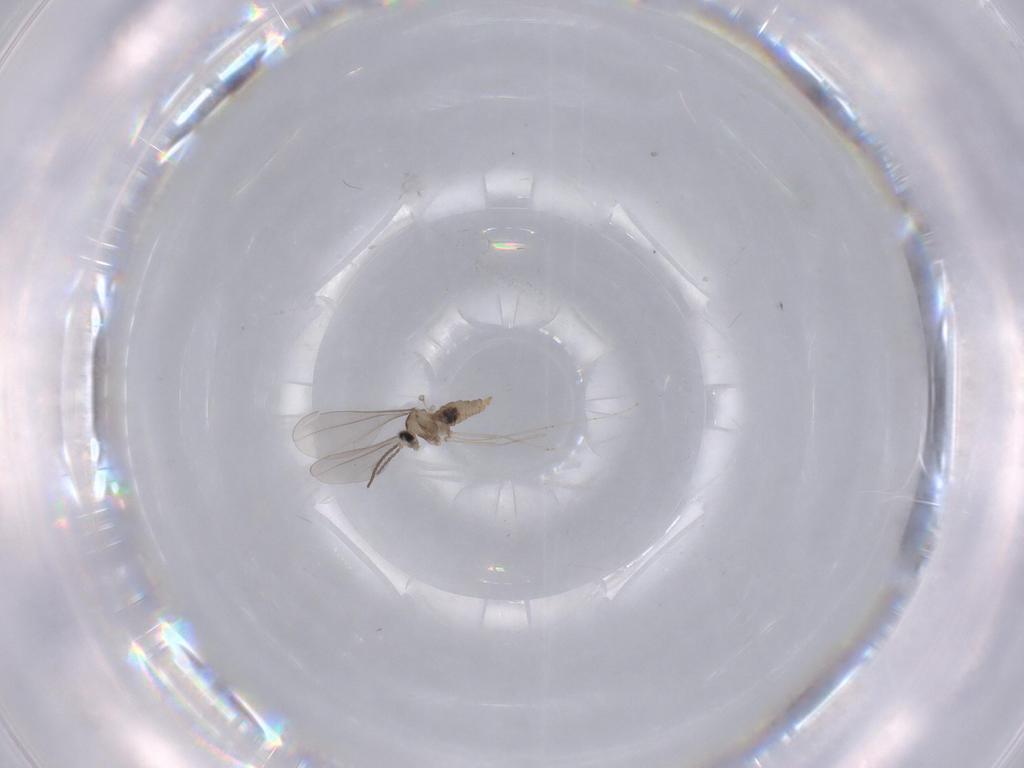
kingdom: Animalia
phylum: Arthropoda
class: Insecta
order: Diptera
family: Cecidomyiidae
